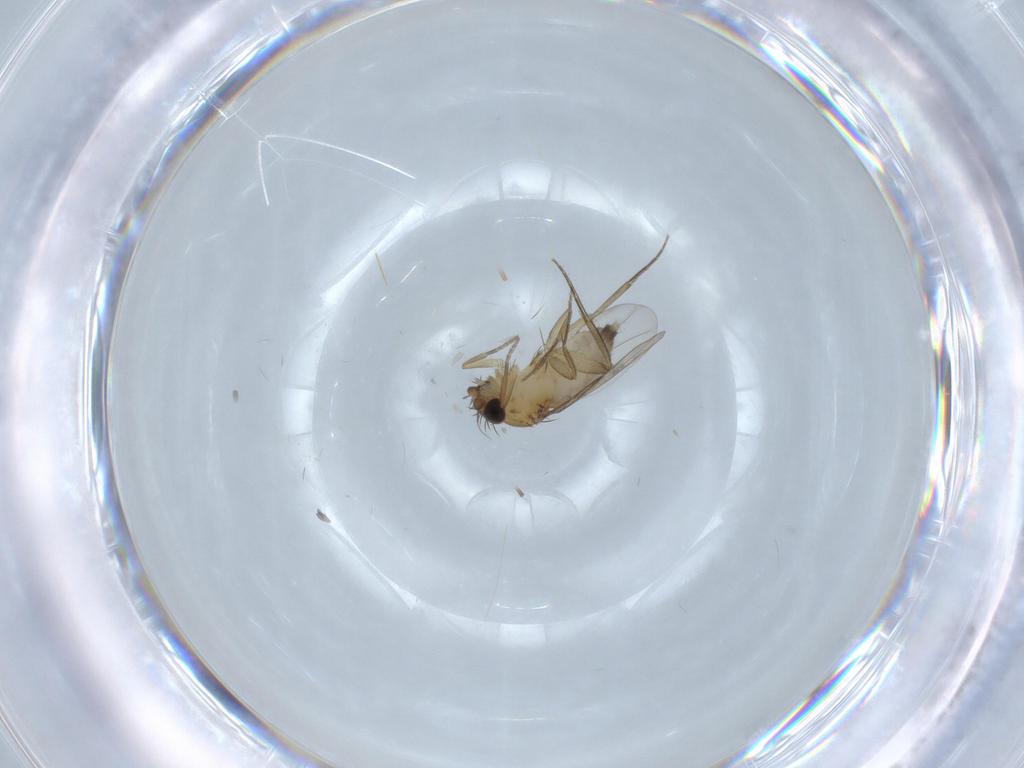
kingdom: Animalia
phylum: Arthropoda
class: Insecta
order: Diptera
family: Phoridae
